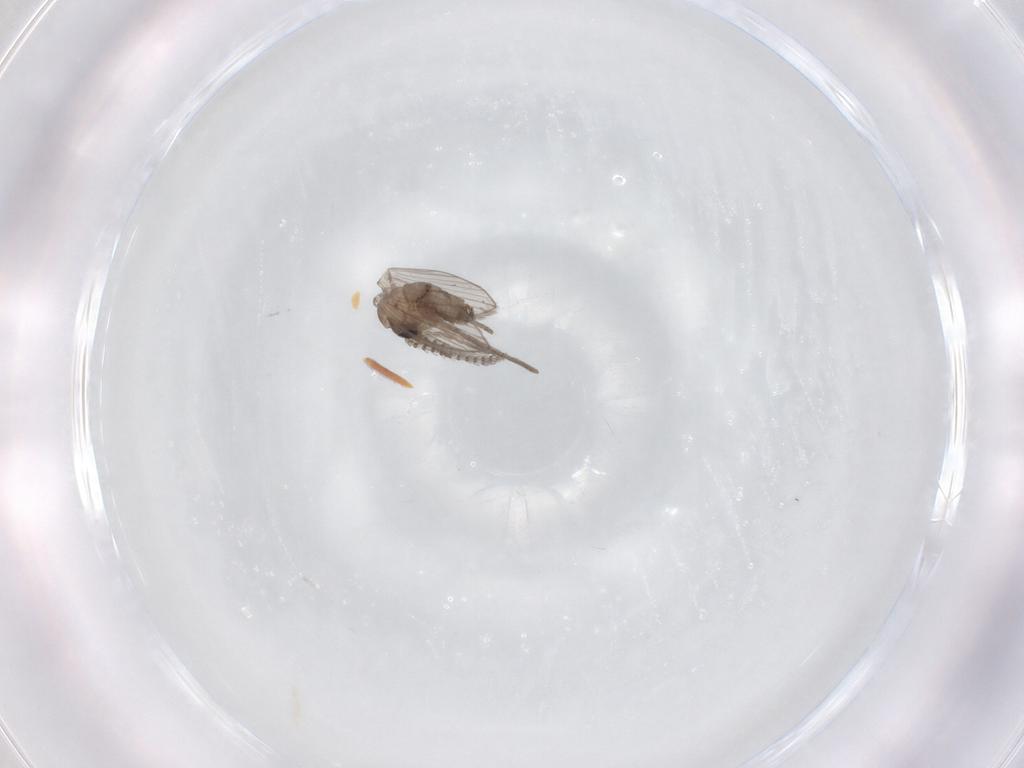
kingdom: Animalia
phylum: Arthropoda
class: Insecta
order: Diptera
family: Psychodidae
